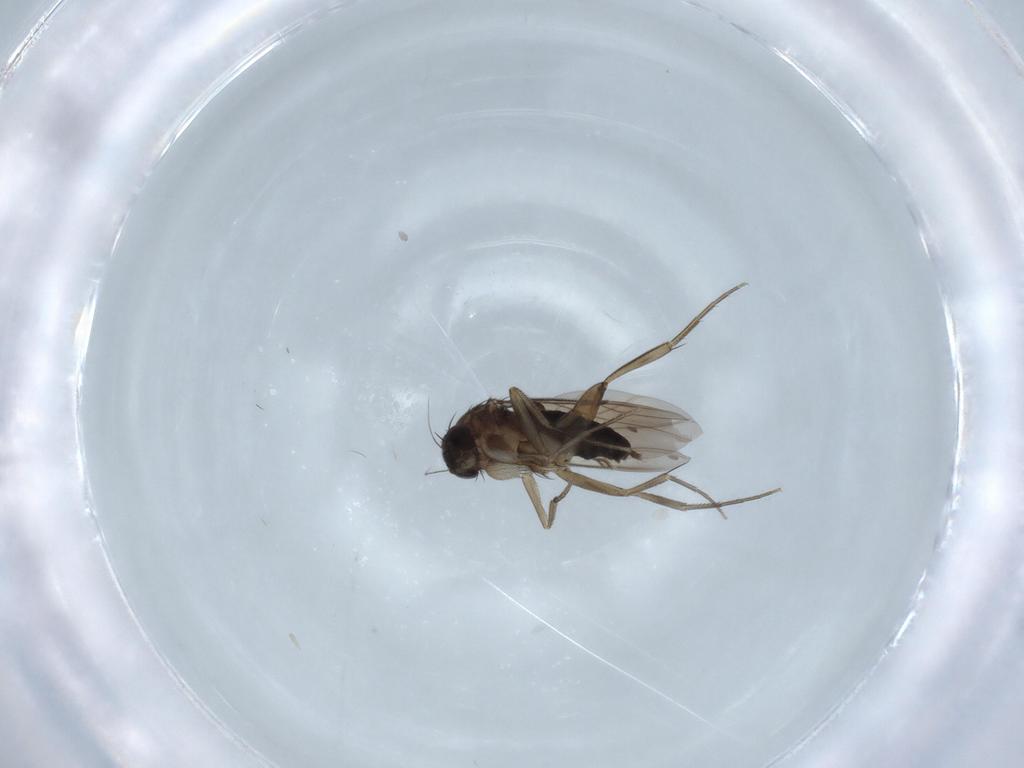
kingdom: Animalia
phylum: Arthropoda
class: Insecta
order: Diptera
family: Phoridae
